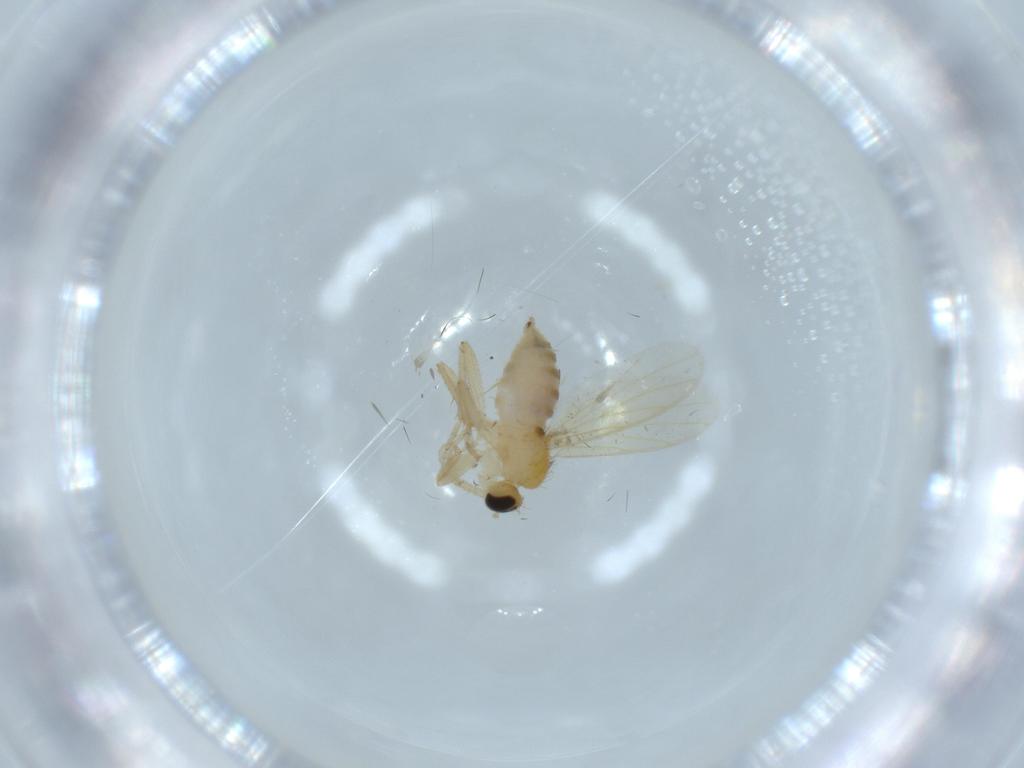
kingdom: Animalia
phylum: Arthropoda
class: Insecta
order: Diptera
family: Hybotidae
